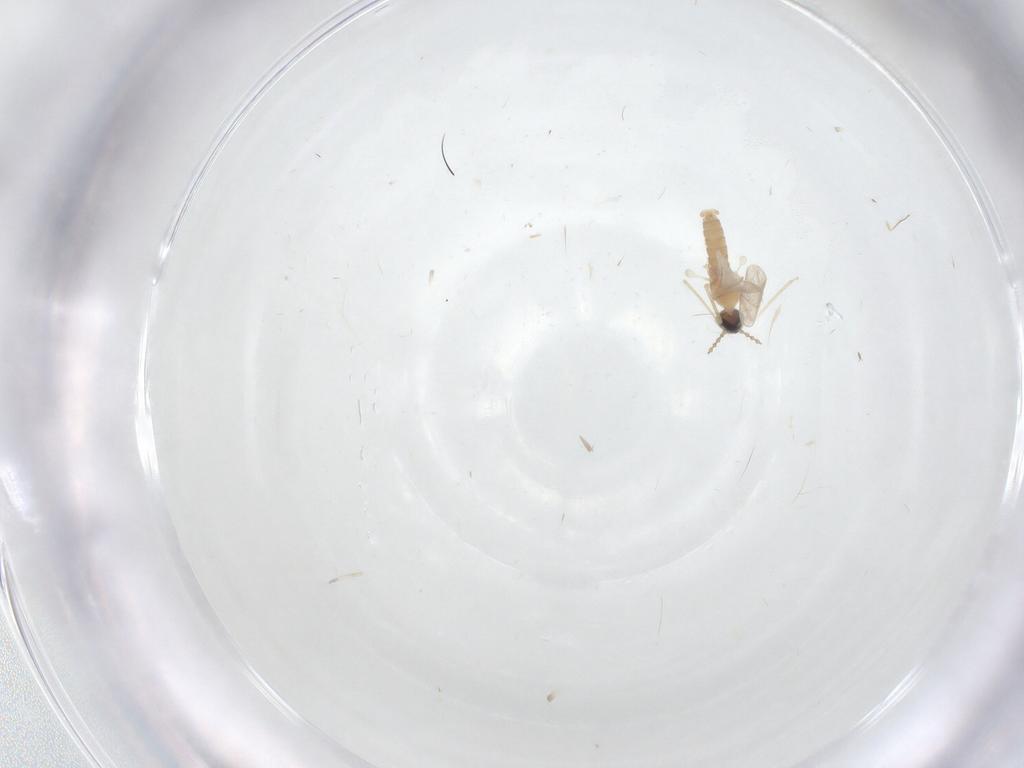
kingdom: Animalia
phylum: Arthropoda
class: Insecta
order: Diptera
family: Cecidomyiidae
